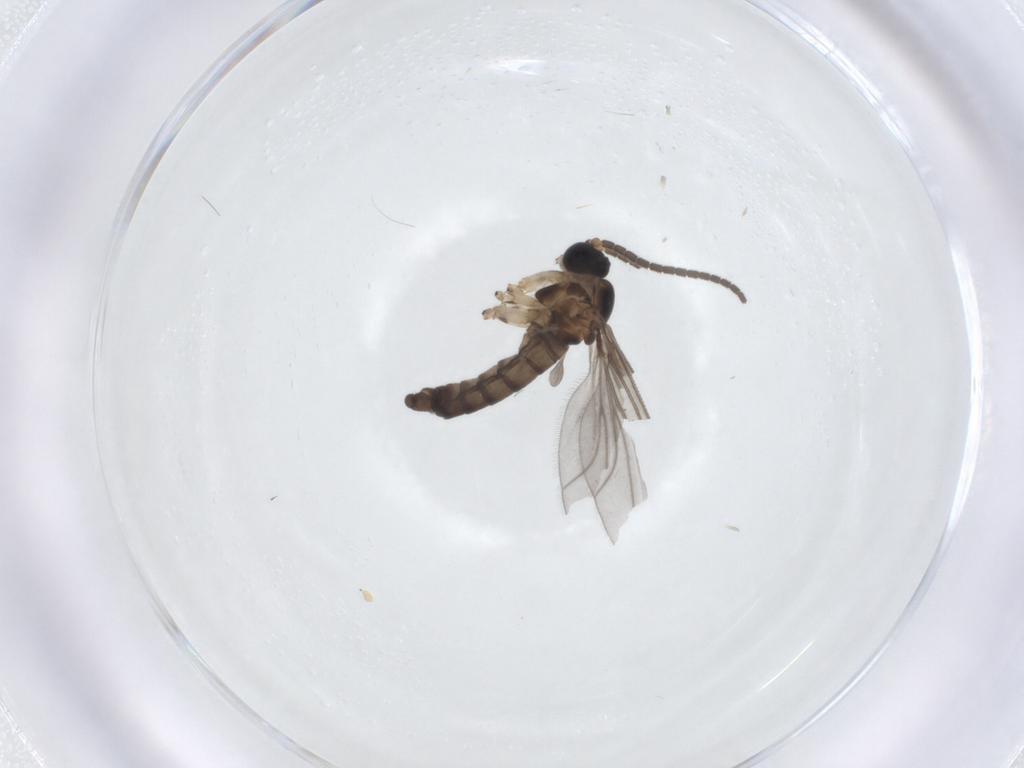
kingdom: Animalia
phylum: Arthropoda
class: Insecta
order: Diptera
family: Sciaridae
